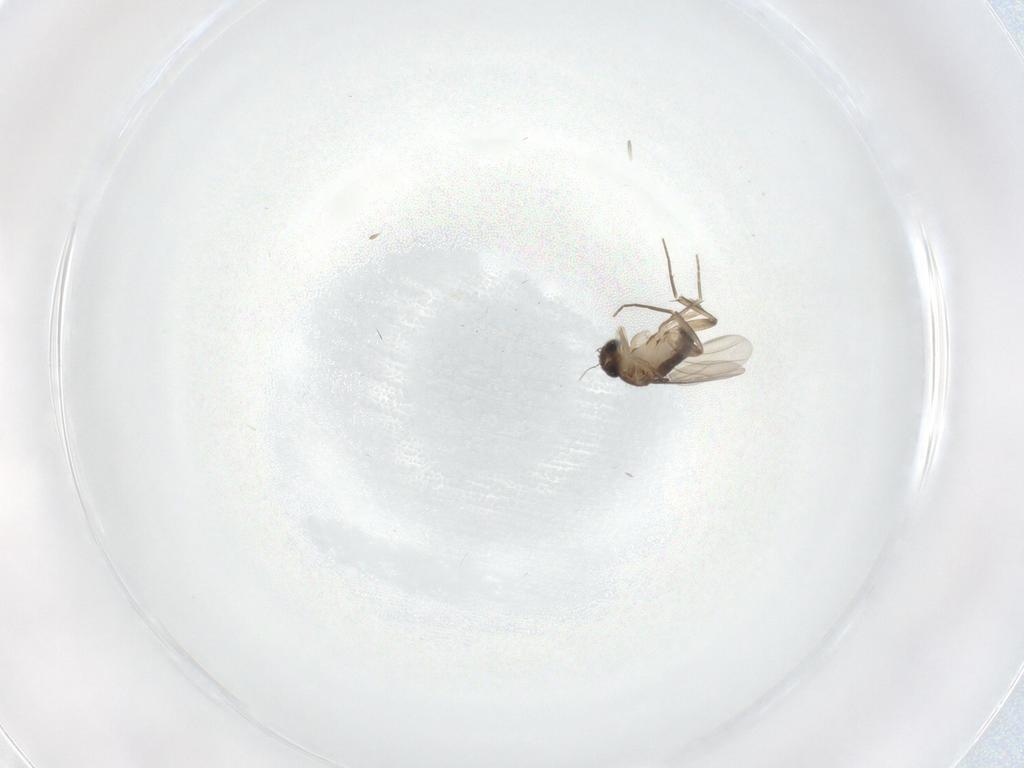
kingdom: Animalia
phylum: Arthropoda
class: Insecta
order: Diptera
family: Phoridae
